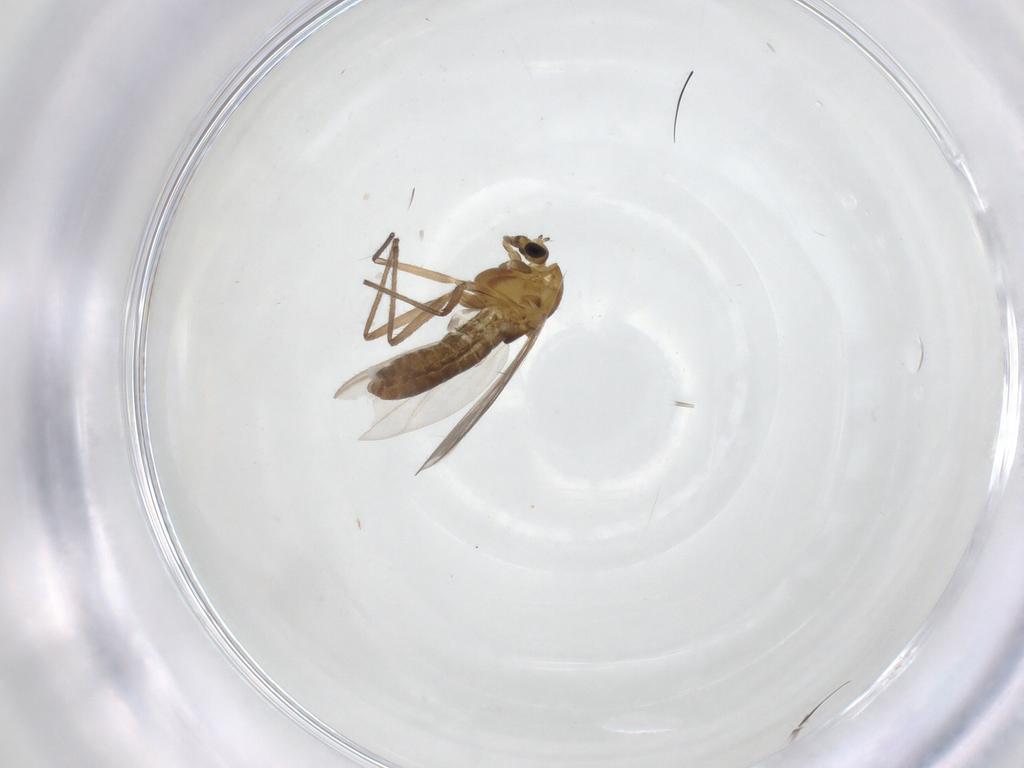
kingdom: Animalia
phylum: Arthropoda
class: Insecta
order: Diptera
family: Chironomidae
